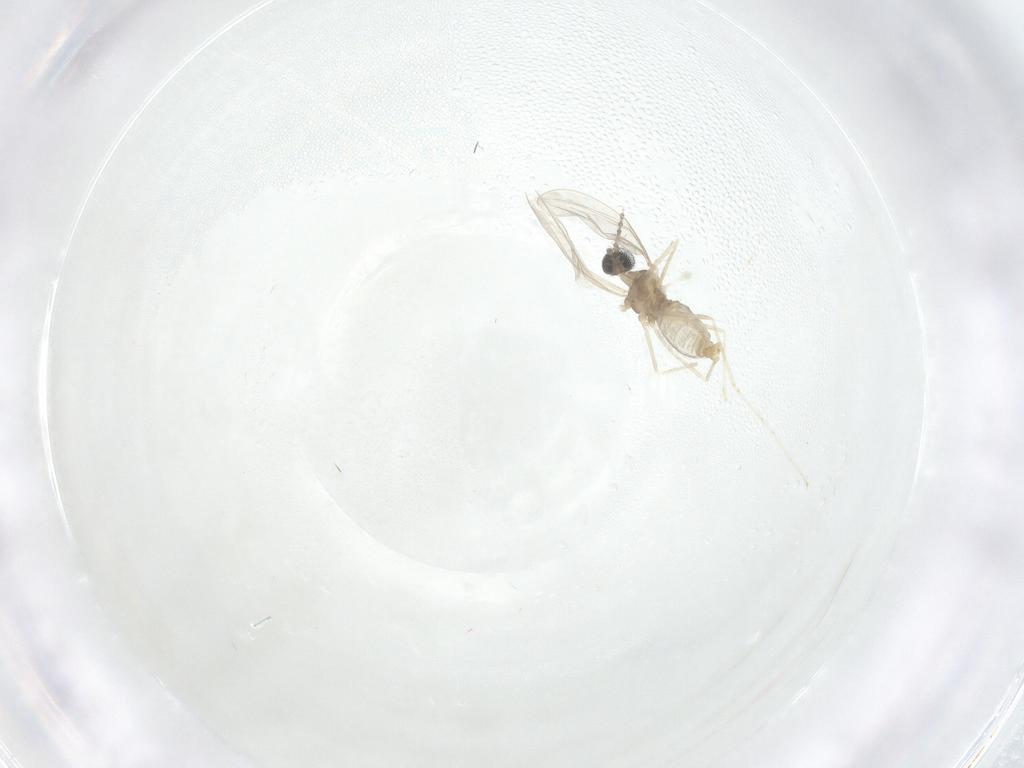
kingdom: Animalia
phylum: Arthropoda
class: Insecta
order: Diptera
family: Cecidomyiidae
